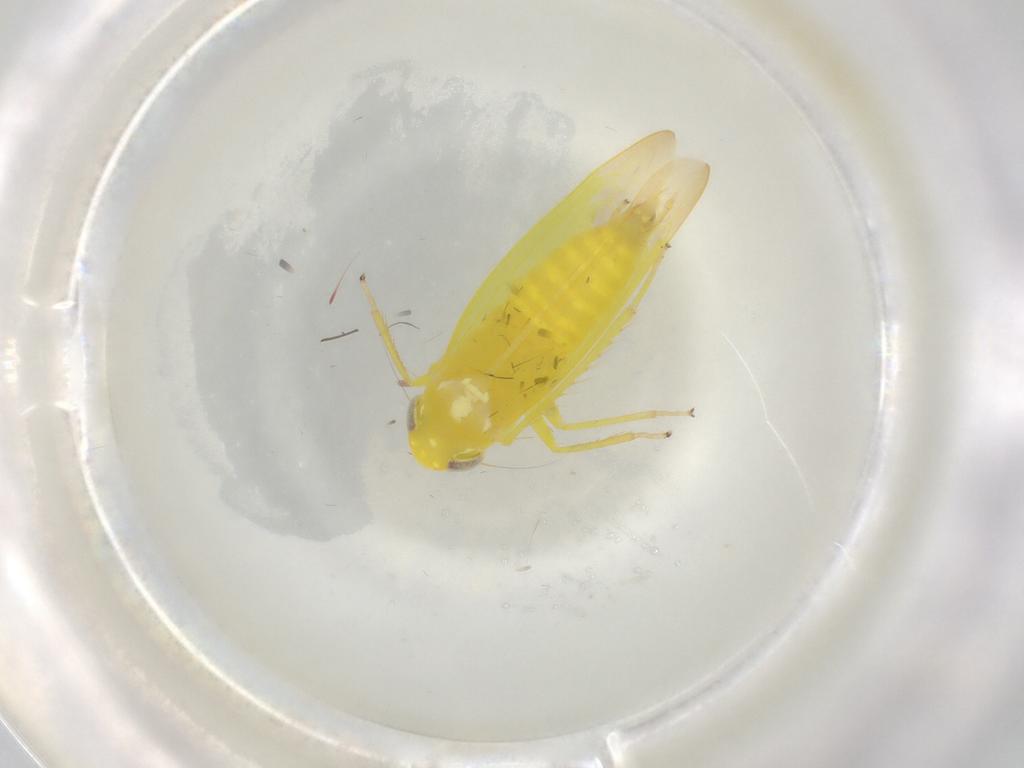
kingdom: Animalia
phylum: Arthropoda
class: Insecta
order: Hemiptera
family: Cicadellidae
